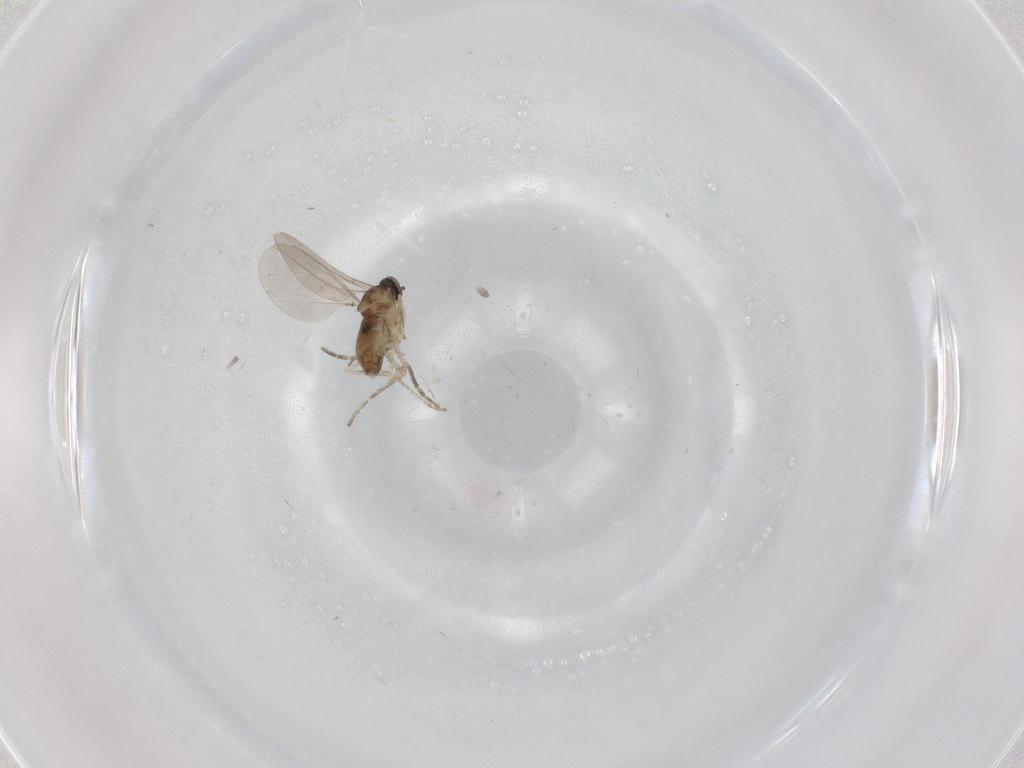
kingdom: Animalia
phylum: Arthropoda
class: Insecta
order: Diptera
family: Cecidomyiidae
